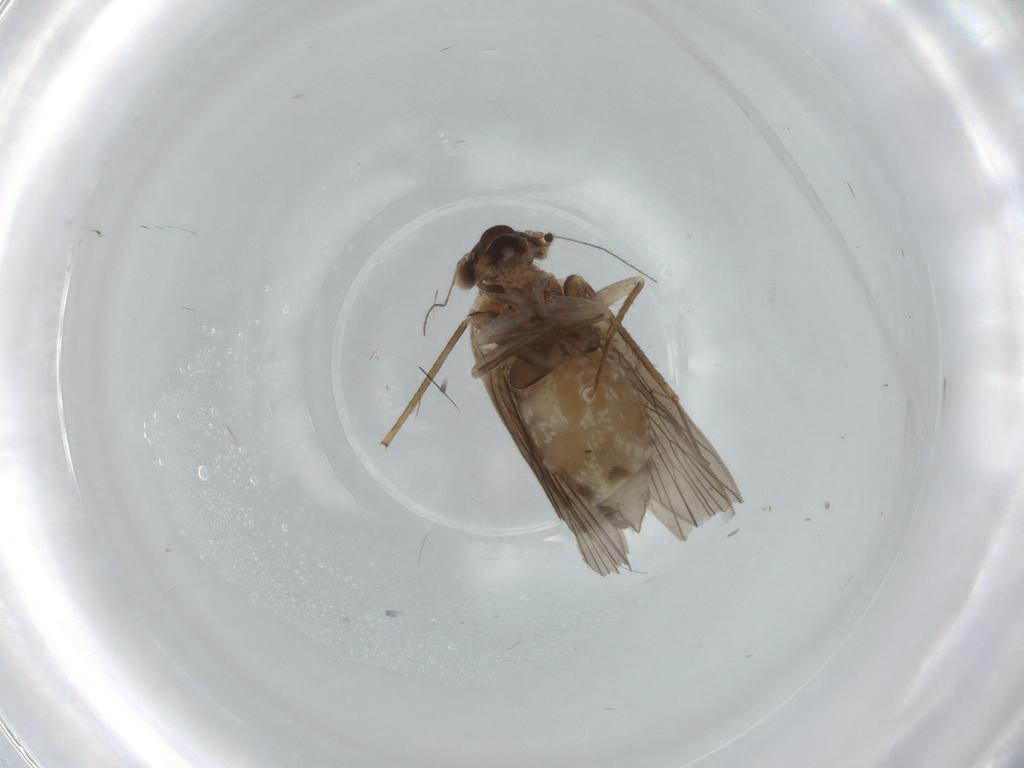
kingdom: Animalia
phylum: Arthropoda
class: Insecta
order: Psocodea
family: Lepidopsocidae
